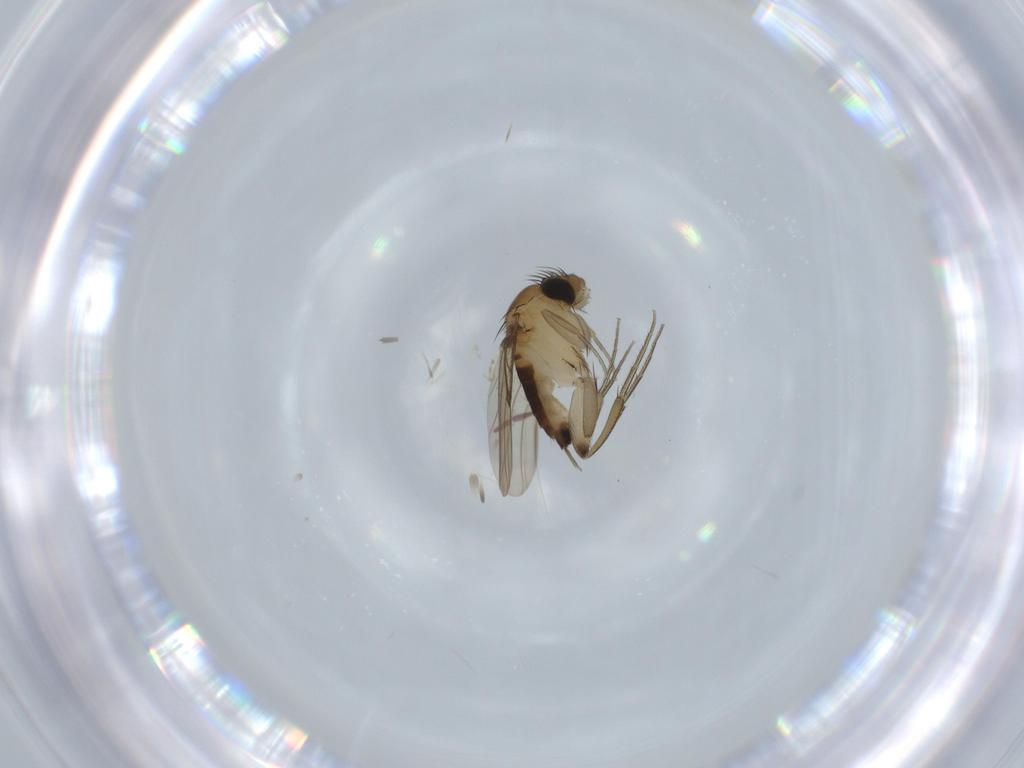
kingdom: Animalia
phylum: Arthropoda
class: Insecta
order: Diptera
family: Phoridae
